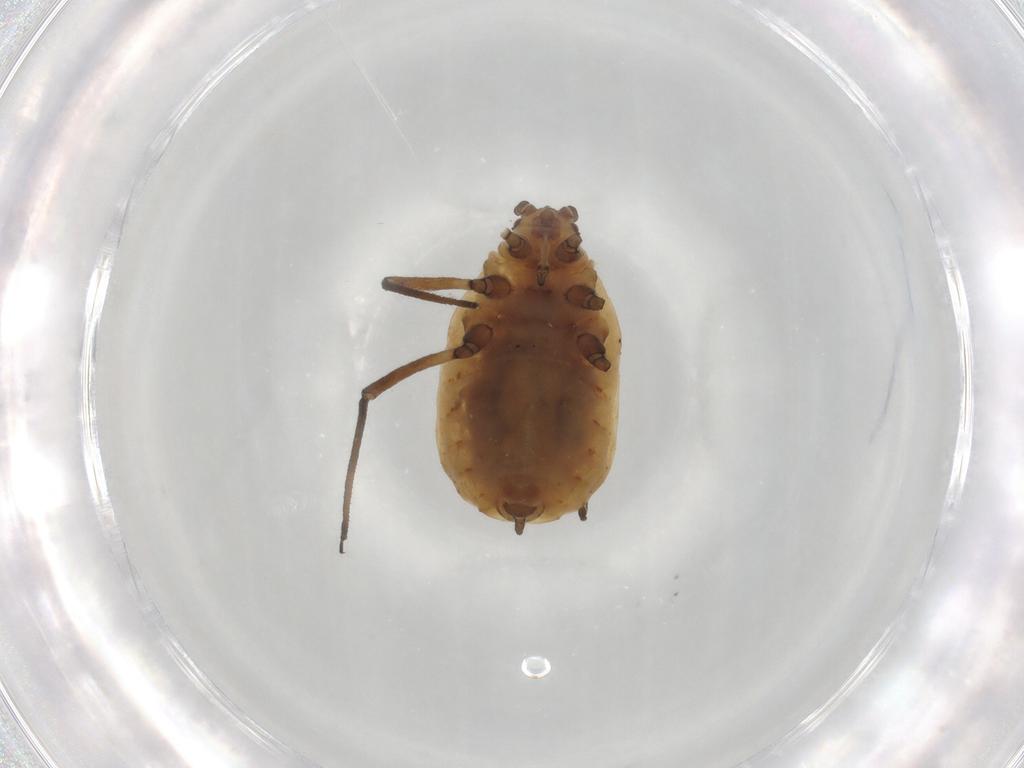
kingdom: Animalia
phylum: Arthropoda
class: Insecta
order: Hemiptera
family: Aphididae
